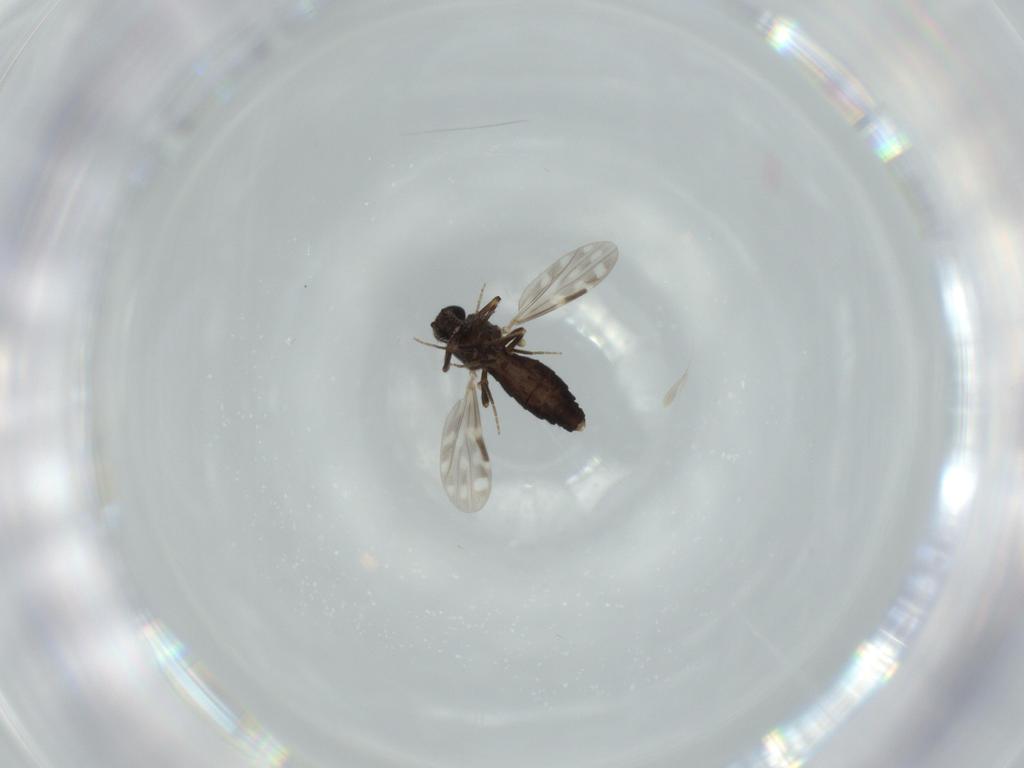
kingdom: Animalia
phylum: Arthropoda
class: Insecta
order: Diptera
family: Ceratopogonidae
